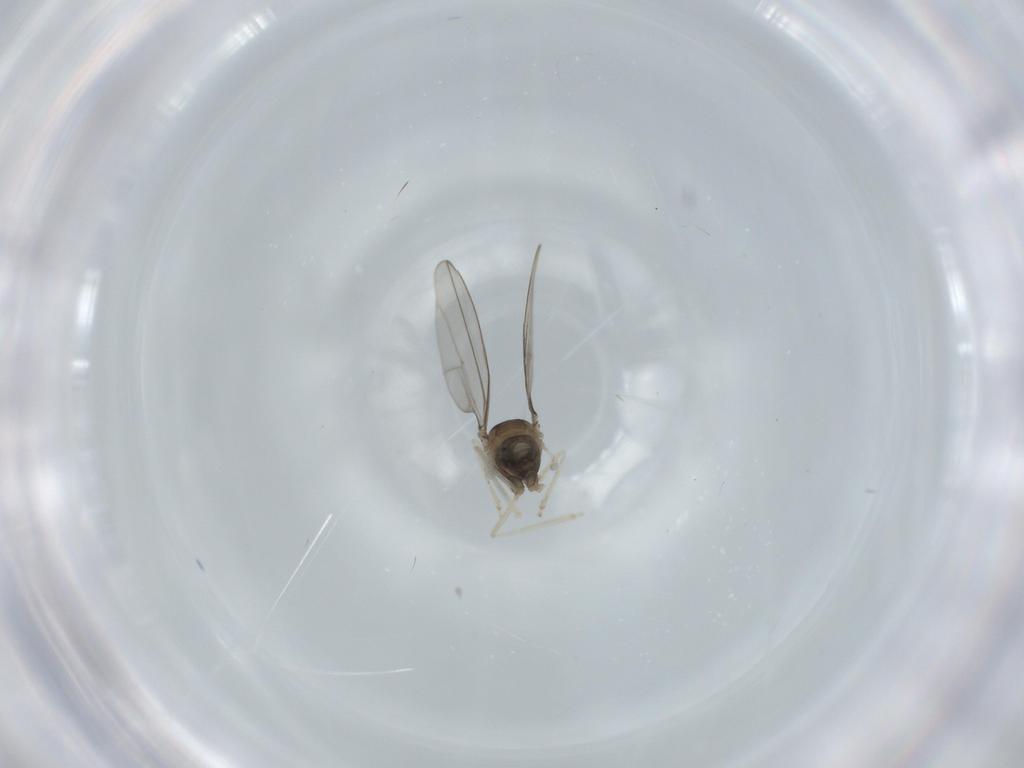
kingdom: Animalia
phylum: Arthropoda
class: Insecta
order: Diptera
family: Cecidomyiidae
